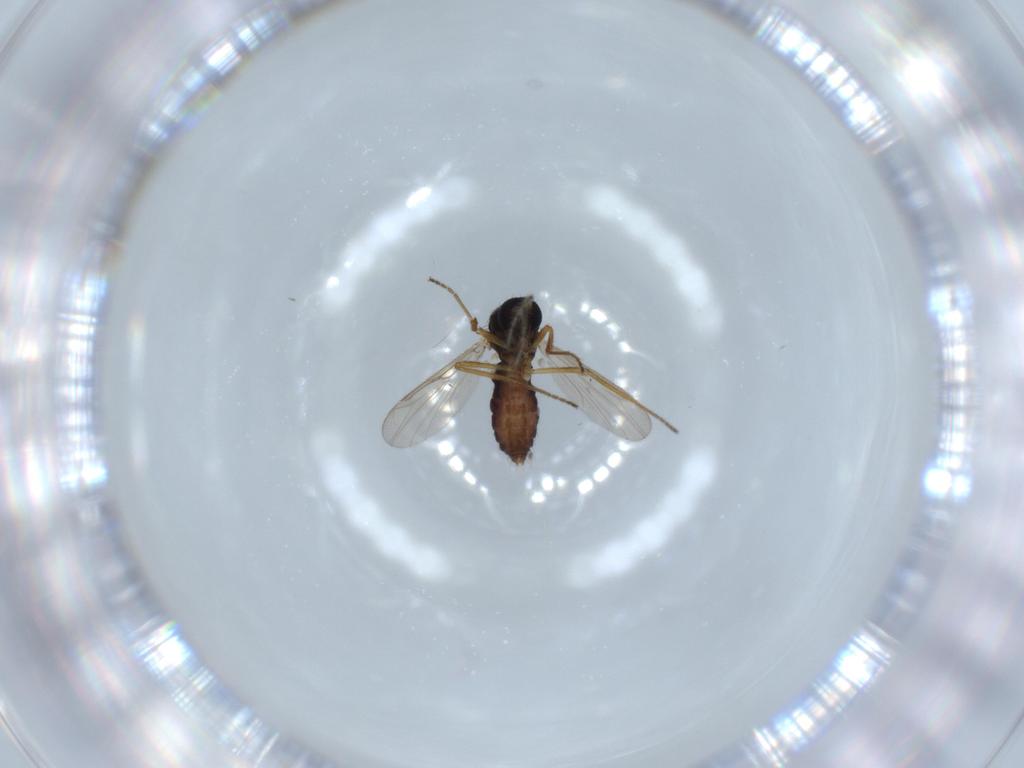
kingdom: Animalia
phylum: Arthropoda
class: Insecta
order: Diptera
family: Ceratopogonidae
